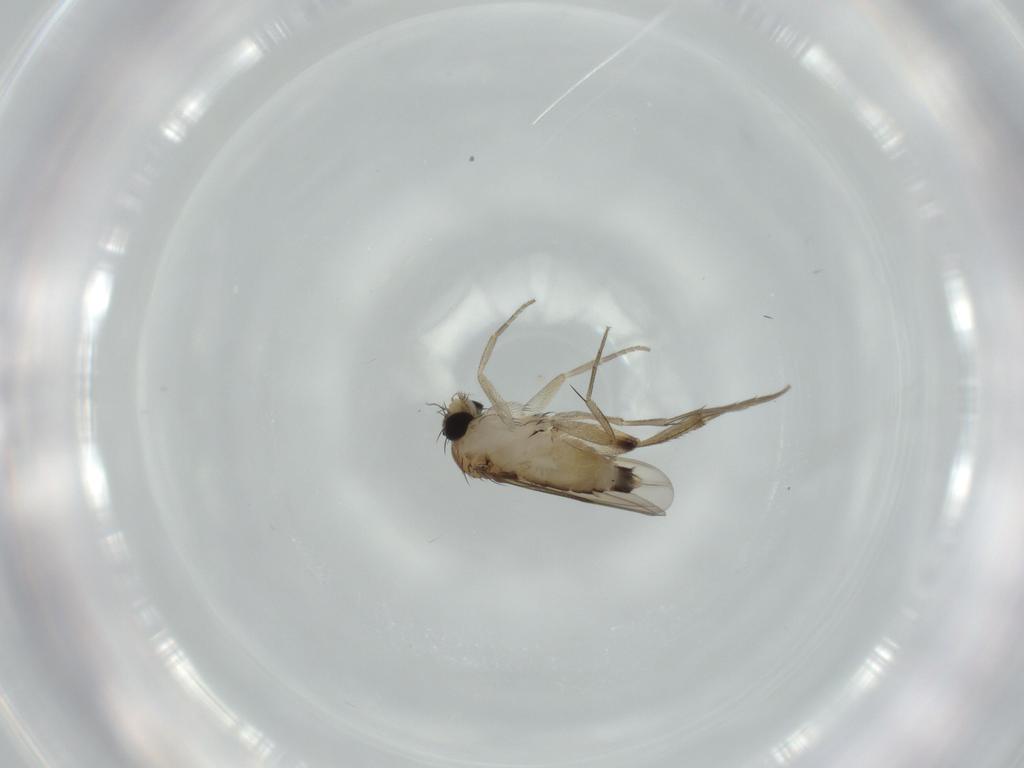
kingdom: Animalia
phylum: Arthropoda
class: Insecta
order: Diptera
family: Phoridae
